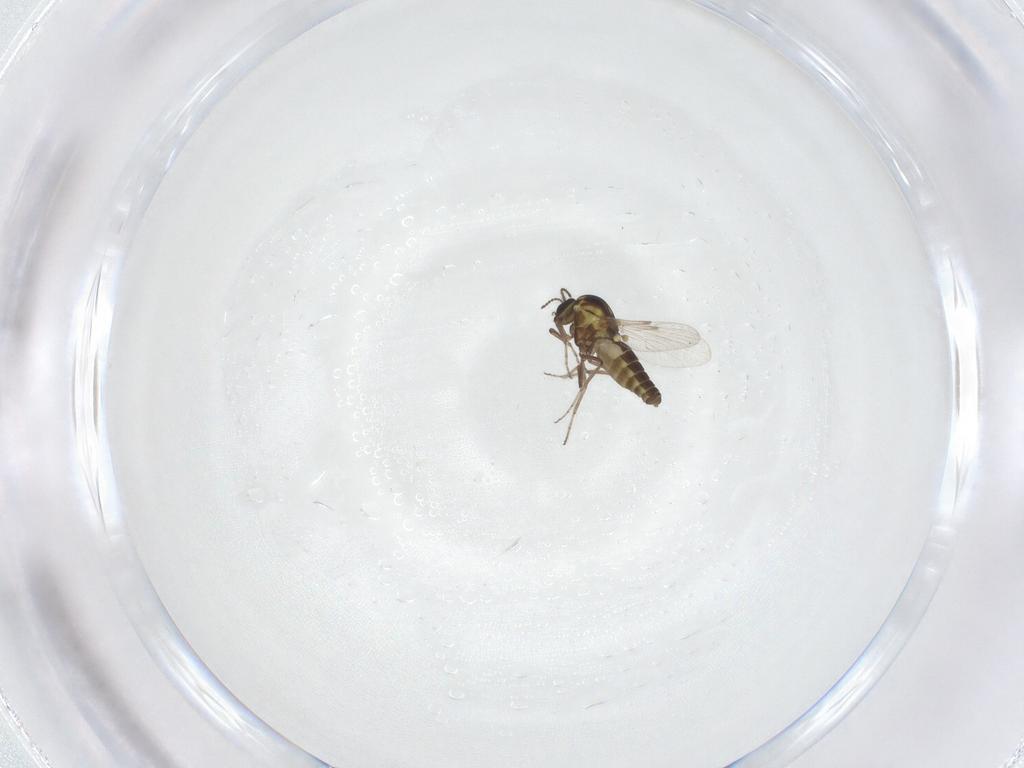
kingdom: Animalia
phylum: Arthropoda
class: Insecta
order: Diptera
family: Ceratopogonidae
